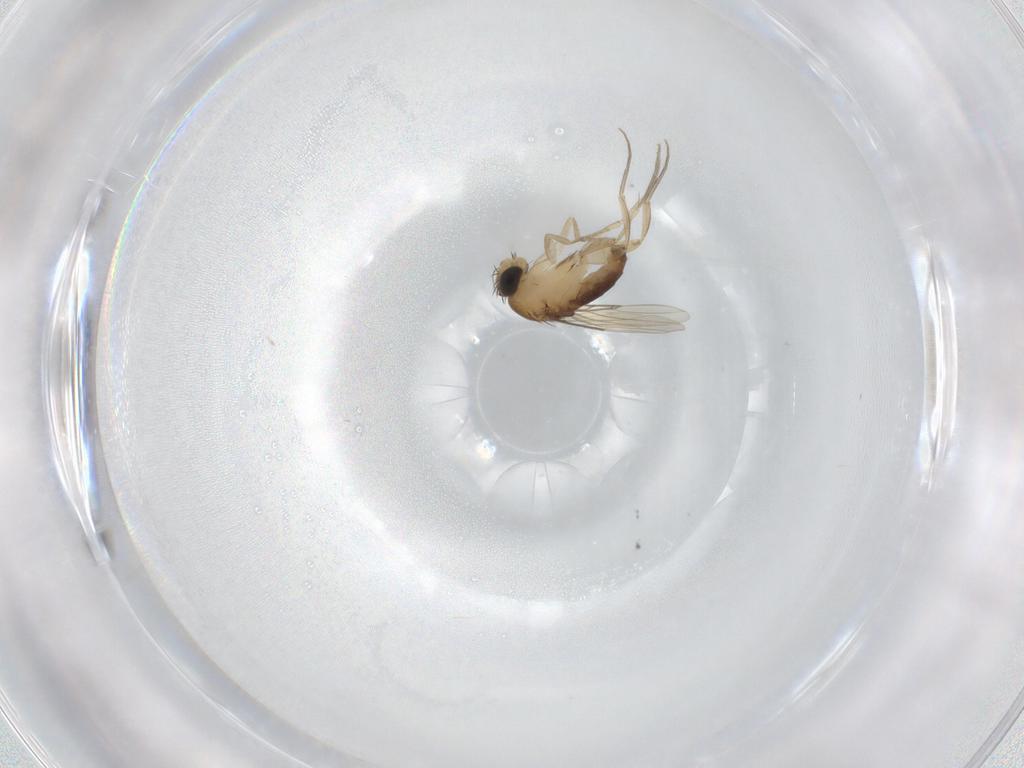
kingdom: Animalia
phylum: Arthropoda
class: Insecta
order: Diptera
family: Phoridae
